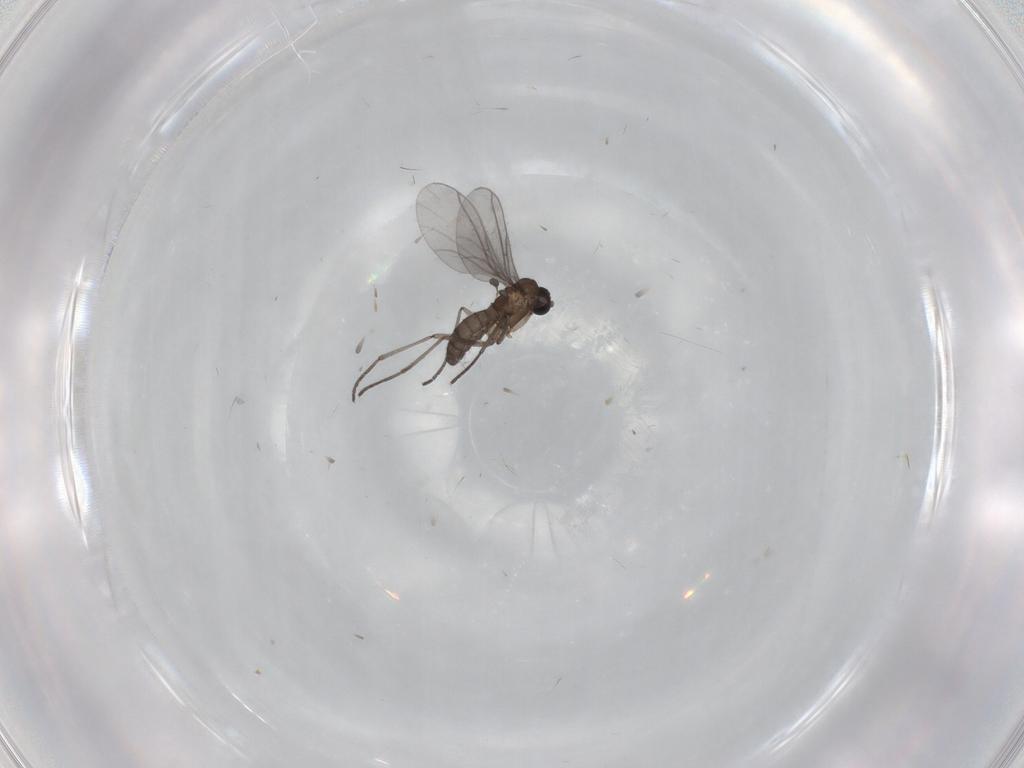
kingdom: Animalia
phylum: Arthropoda
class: Insecta
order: Diptera
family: Sciaridae
